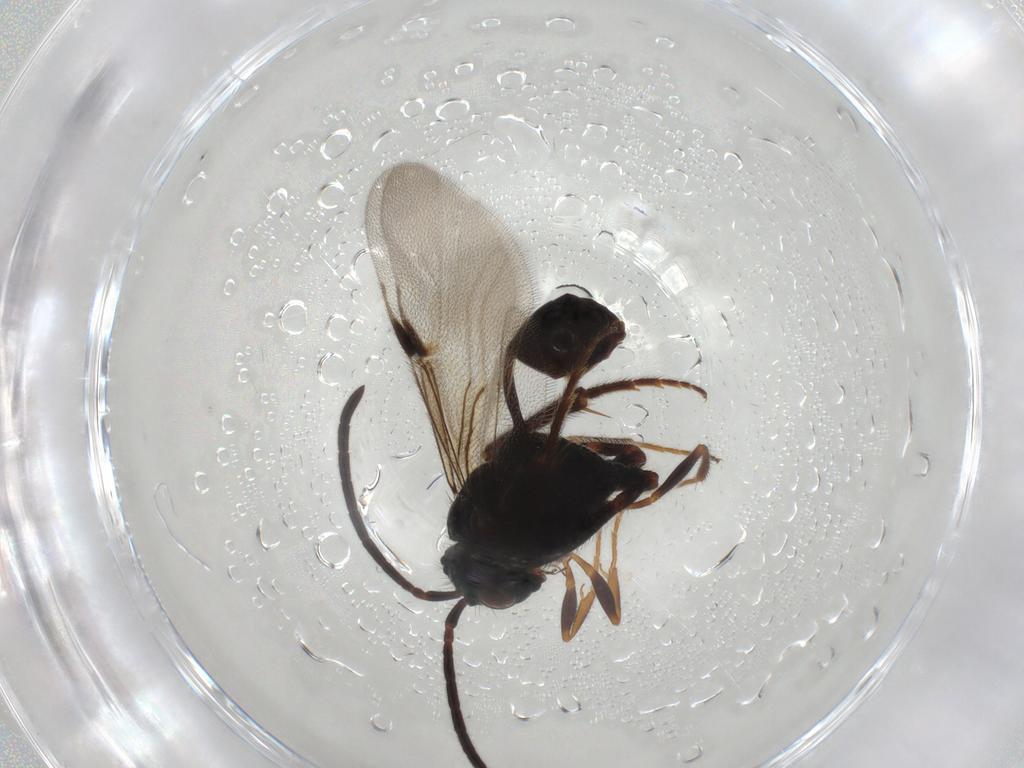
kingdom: Animalia
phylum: Arthropoda
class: Insecta
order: Hymenoptera
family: Evaniidae
